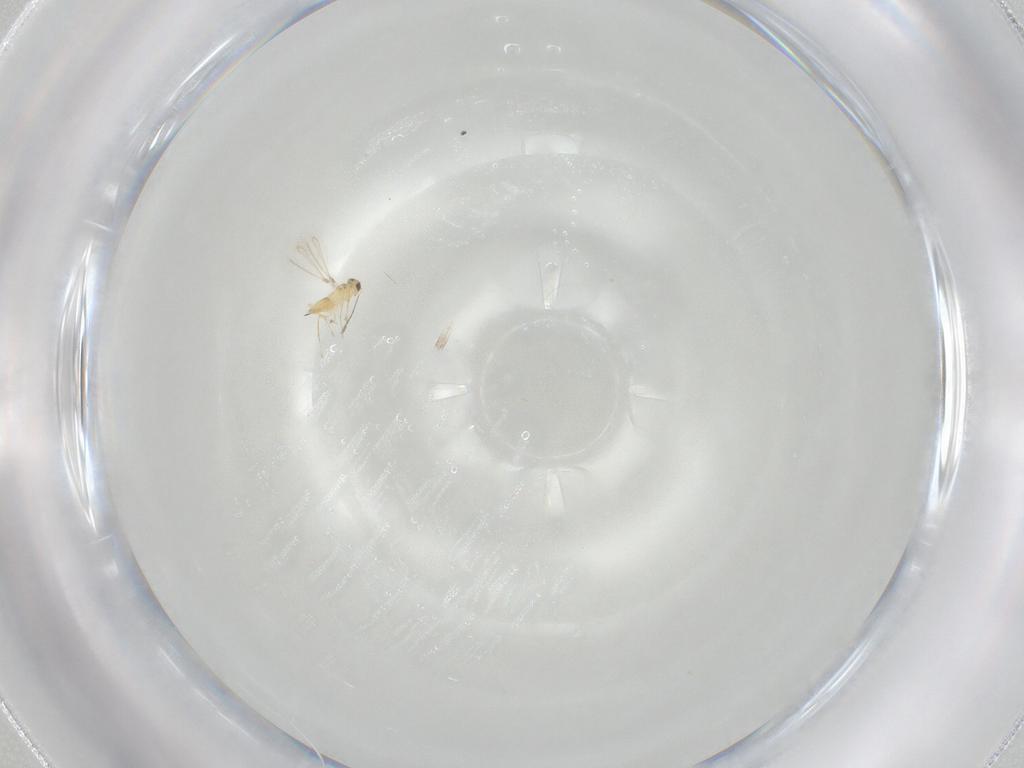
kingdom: Animalia
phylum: Arthropoda
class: Insecta
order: Hymenoptera
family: Mymaridae
